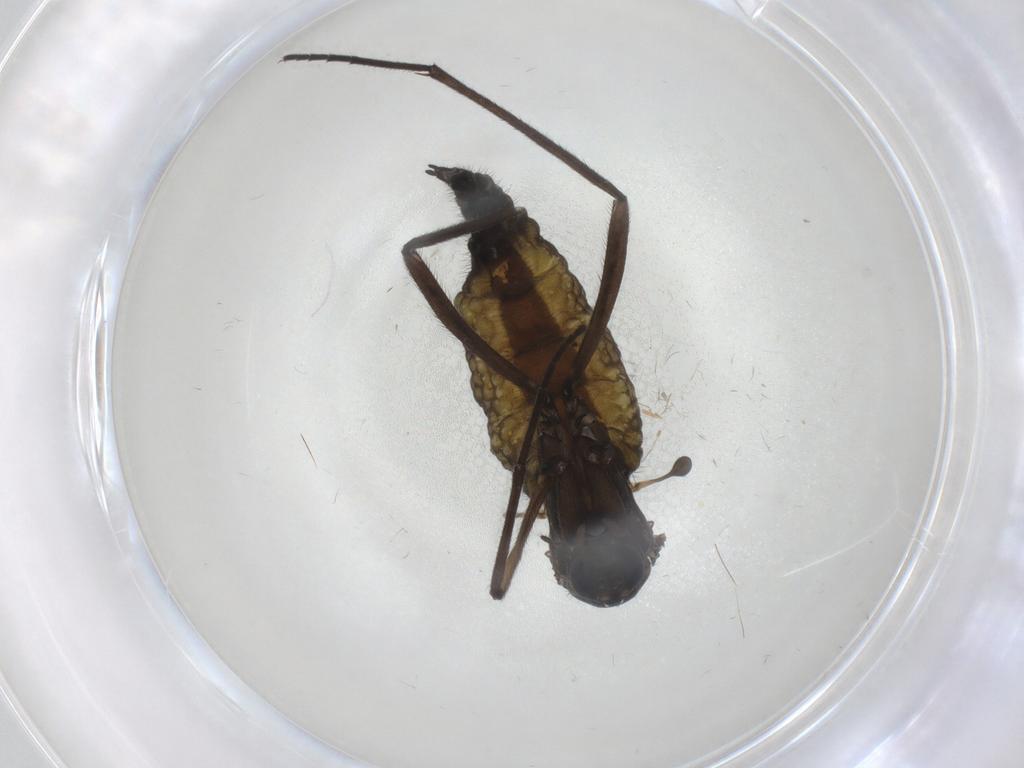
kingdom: Animalia
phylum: Arthropoda
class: Insecta
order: Diptera
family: Sciaridae
